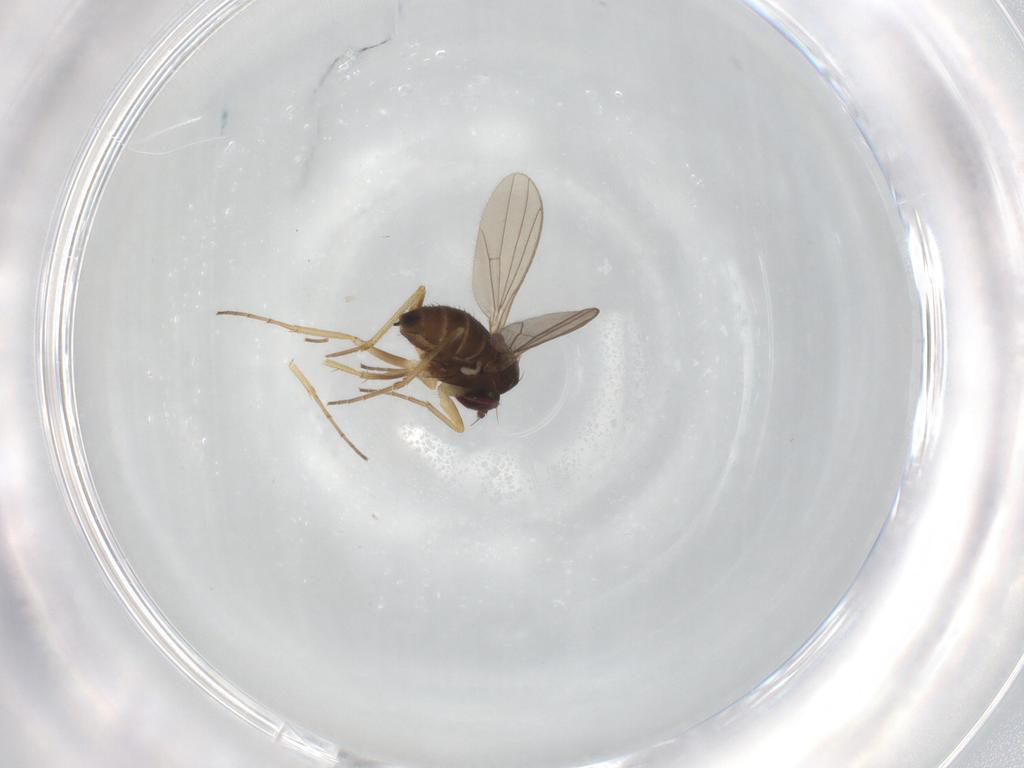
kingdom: Animalia
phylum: Arthropoda
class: Insecta
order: Diptera
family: Dolichopodidae
